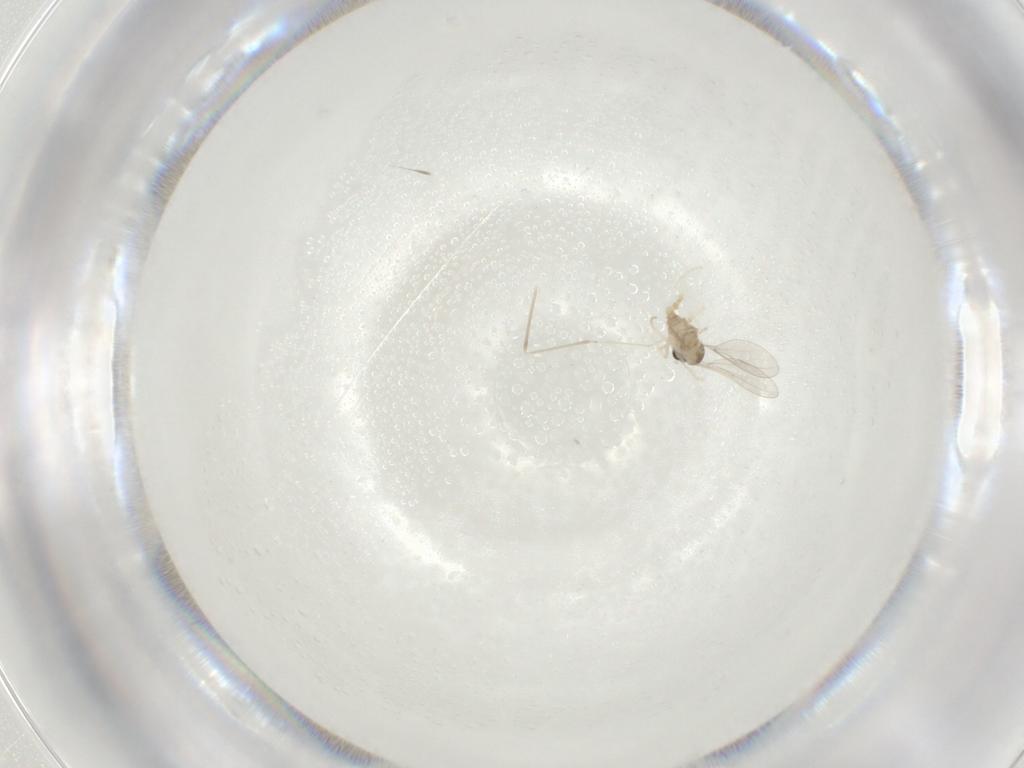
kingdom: Animalia
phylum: Arthropoda
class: Insecta
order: Diptera
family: Cecidomyiidae
